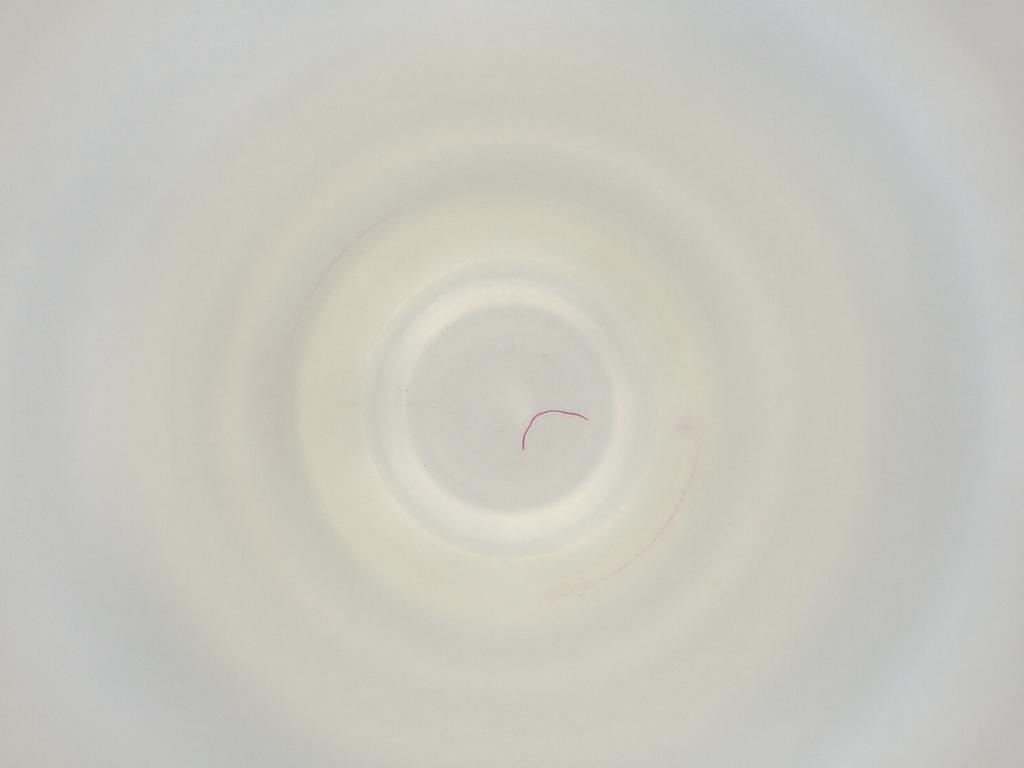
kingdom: Animalia
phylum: Arthropoda
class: Insecta
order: Diptera
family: Cecidomyiidae
